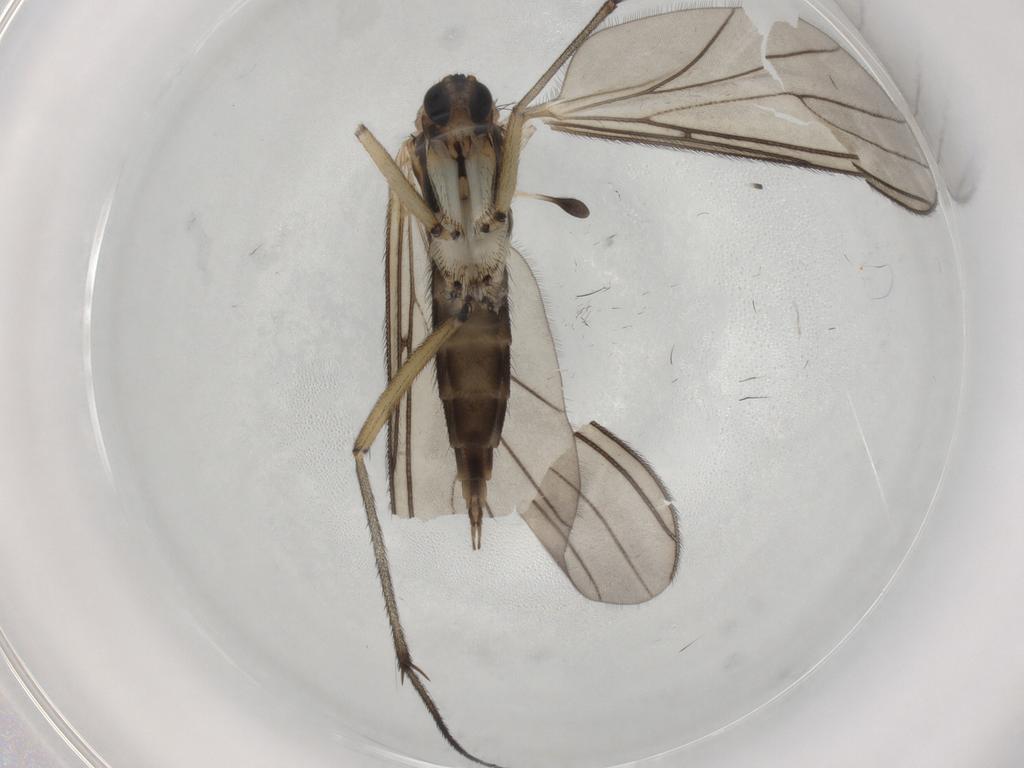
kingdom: Animalia
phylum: Arthropoda
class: Insecta
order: Diptera
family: Sciaridae
